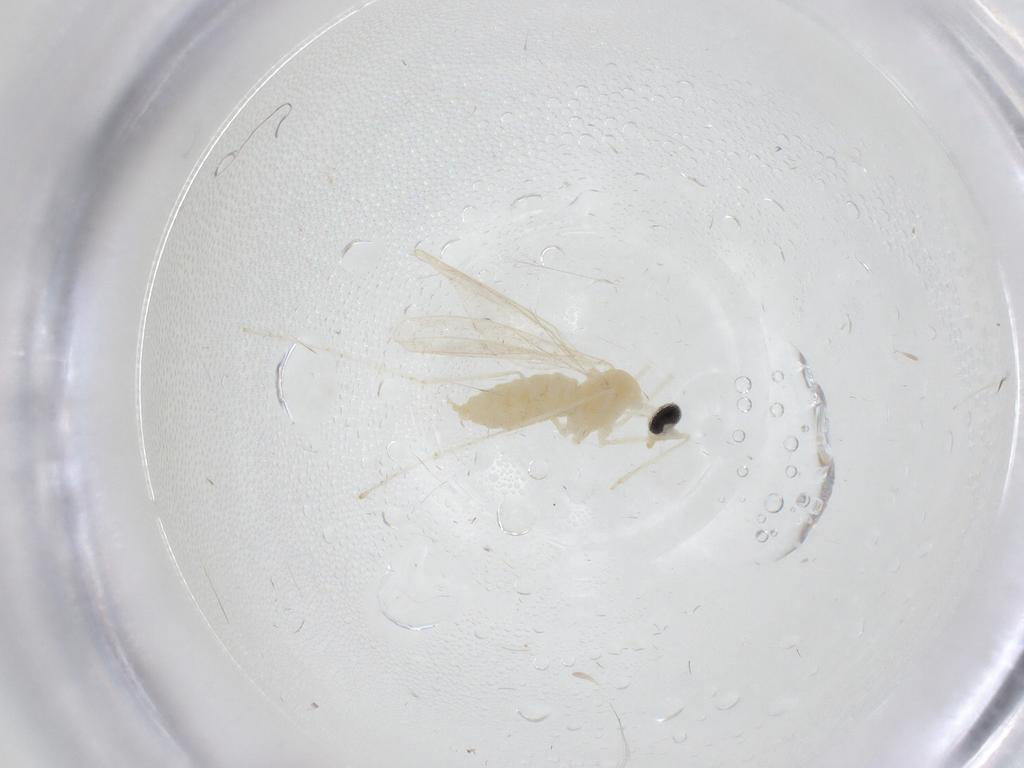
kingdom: Animalia
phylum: Arthropoda
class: Insecta
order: Diptera
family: Cecidomyiidae
